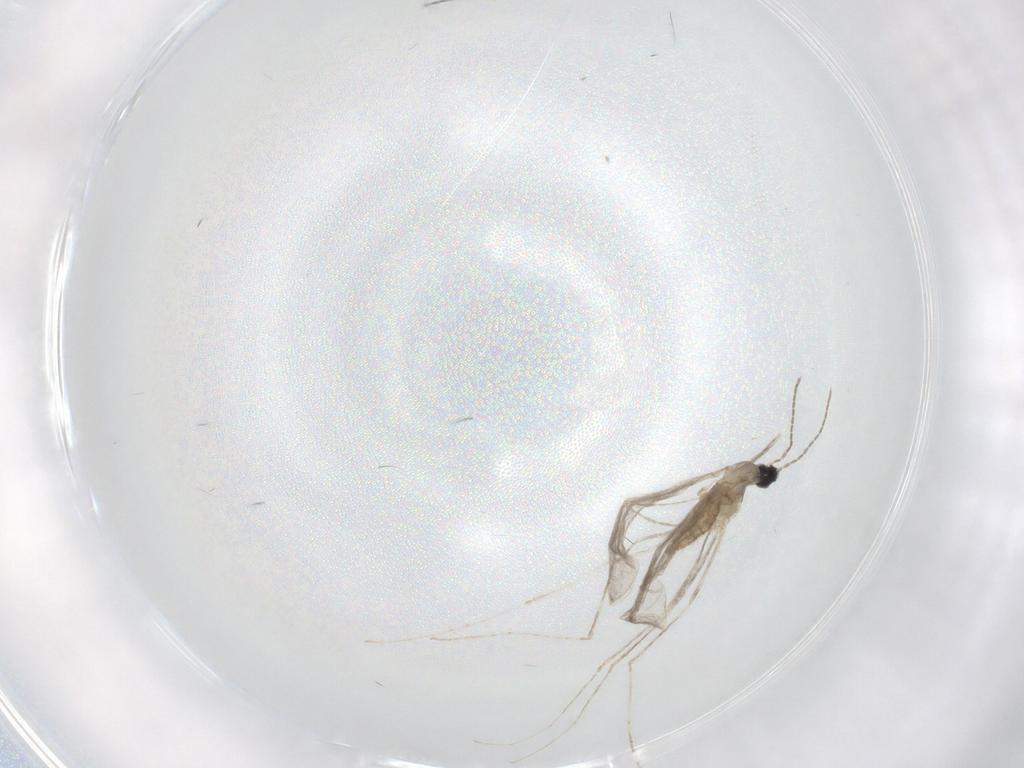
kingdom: Animalia
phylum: Arthropoda
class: Insecta
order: Diptera
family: Cecidomyiidae
